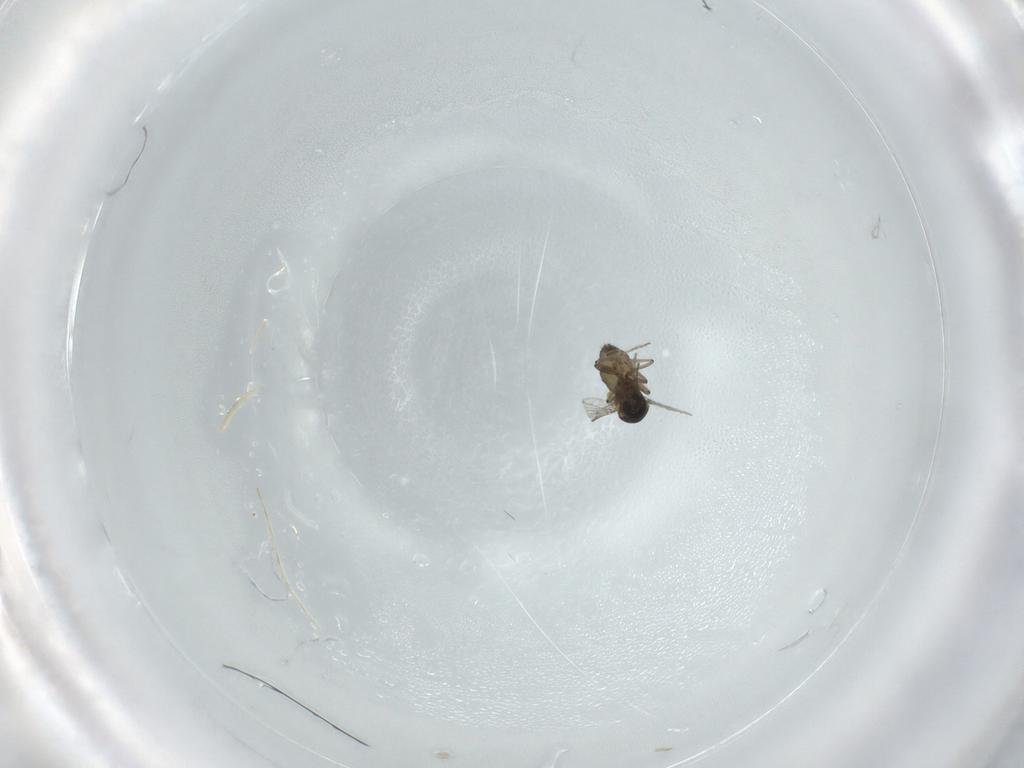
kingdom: Animalia
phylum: Arthropoda
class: Insecta
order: Diptera
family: Ceratopogonidae
